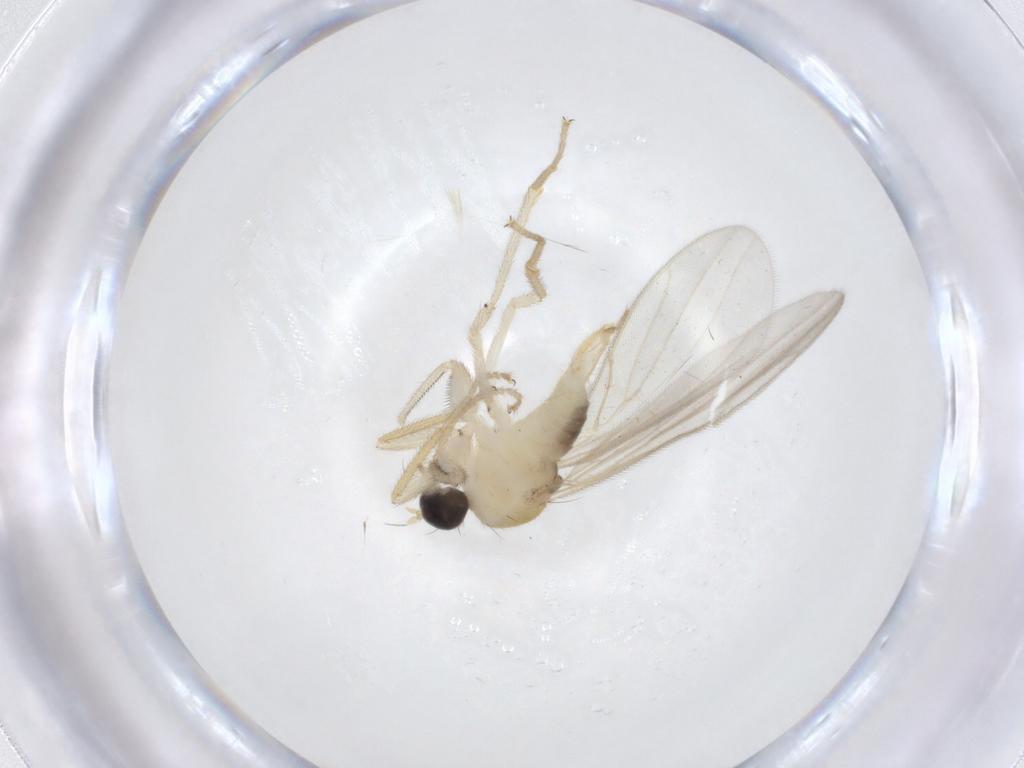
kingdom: Animalia
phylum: Arthropoda
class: Insecta
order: Diptera
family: Hybotidae
